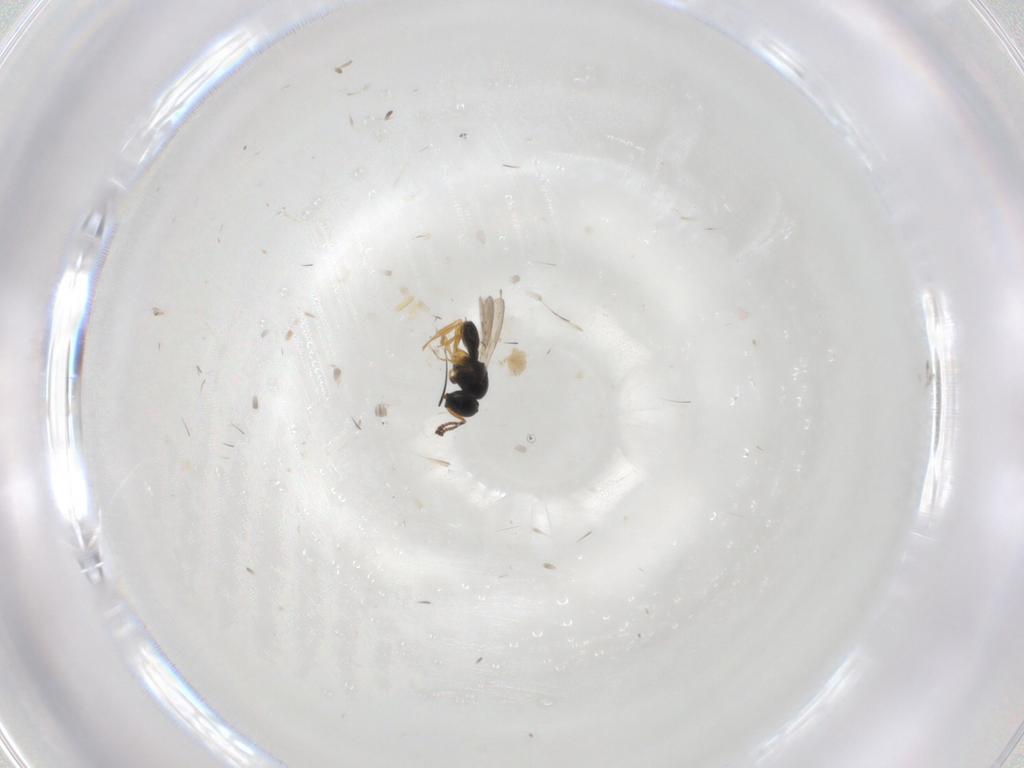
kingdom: Animalia
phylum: Arthropoda
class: Insecta
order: Hymenoptera
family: Scelionidae
